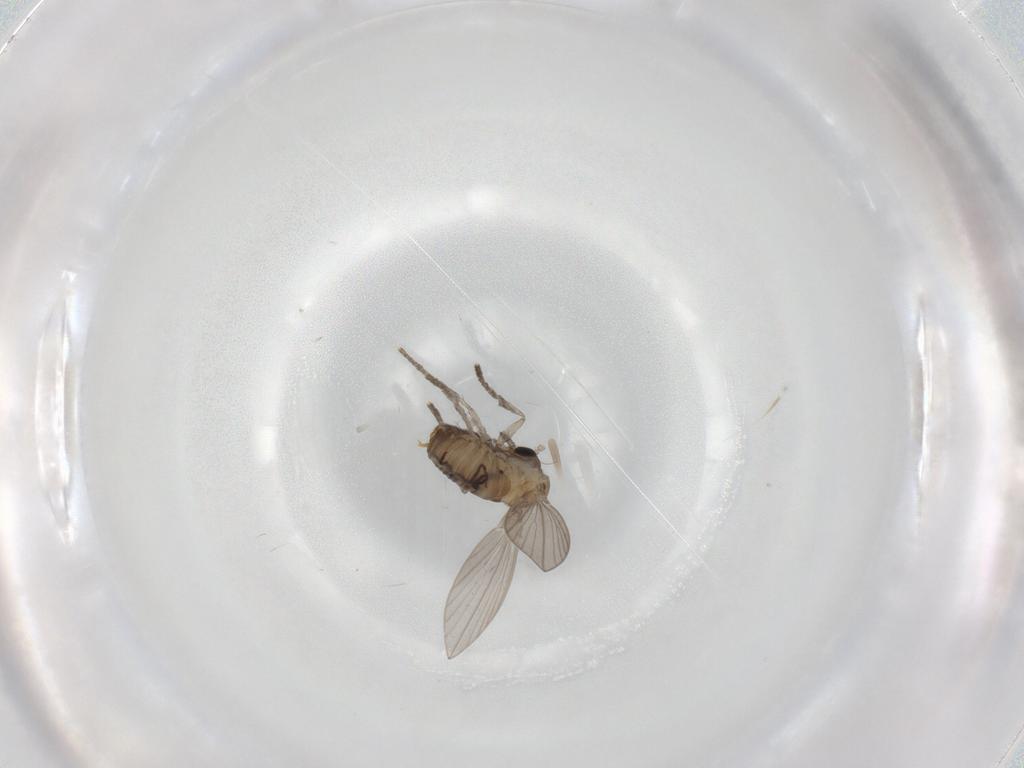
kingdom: Animalia
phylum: Arthropoda
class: Insecta
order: Diptera
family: Psychodidae
